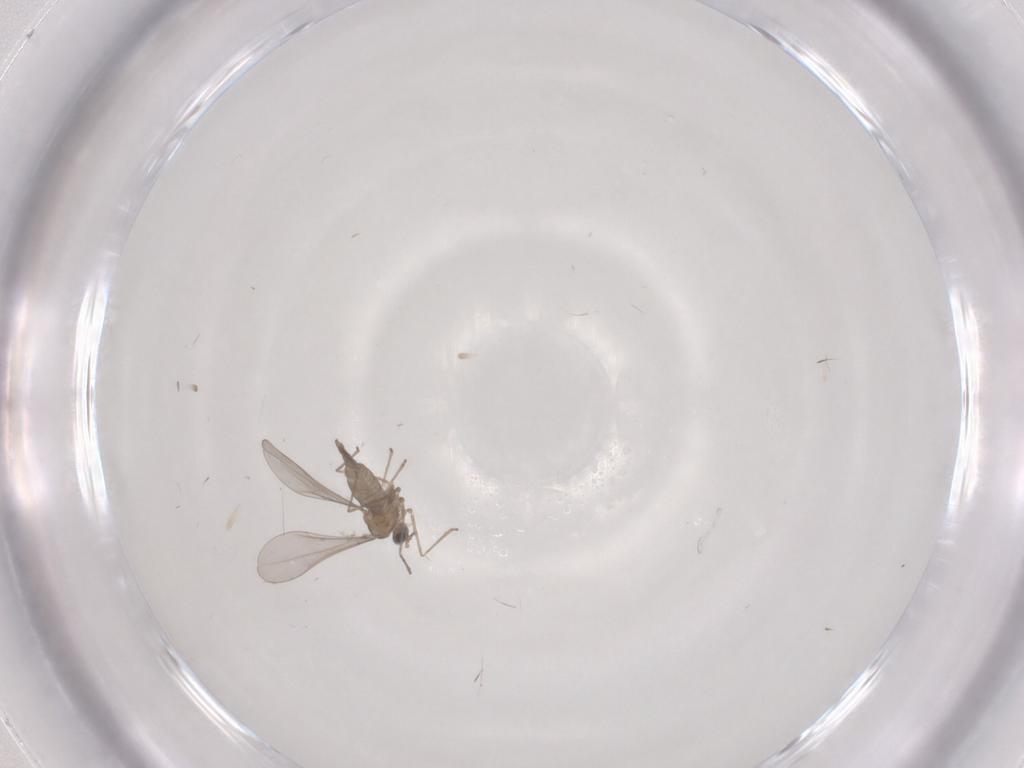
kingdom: Animalia
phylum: Arthropoda
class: Insecta
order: Diptera
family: Cecidomyiidae
